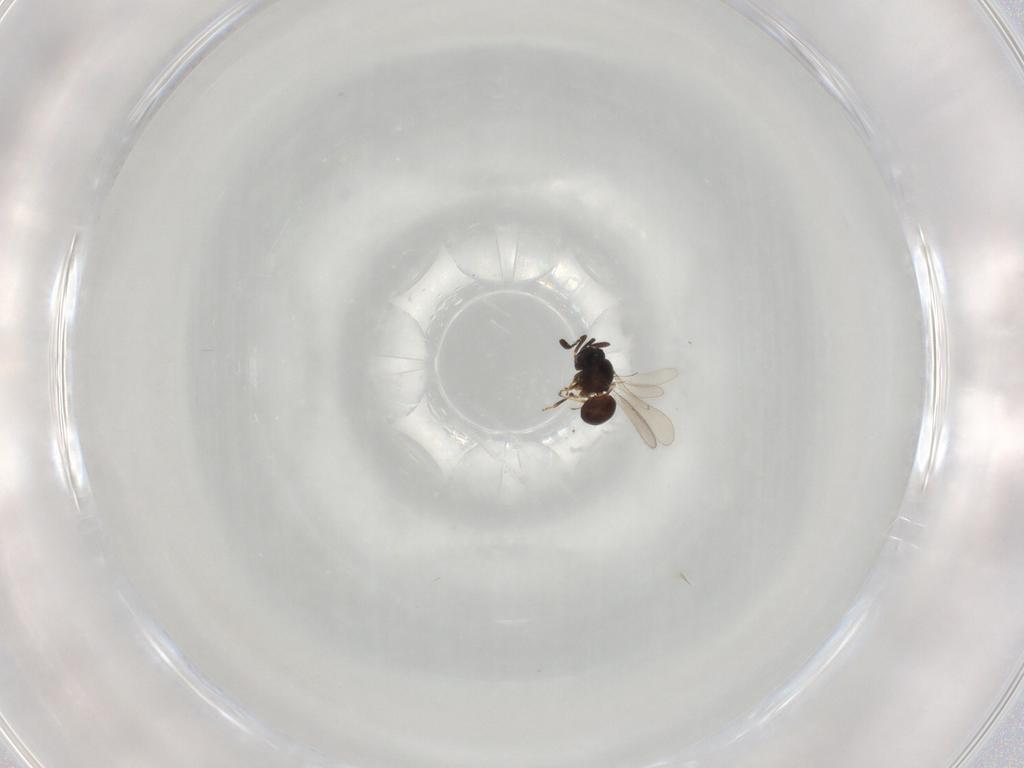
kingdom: Animalia
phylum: Arthropoda
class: Insecta
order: Hymenoptera
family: Scelionidae
